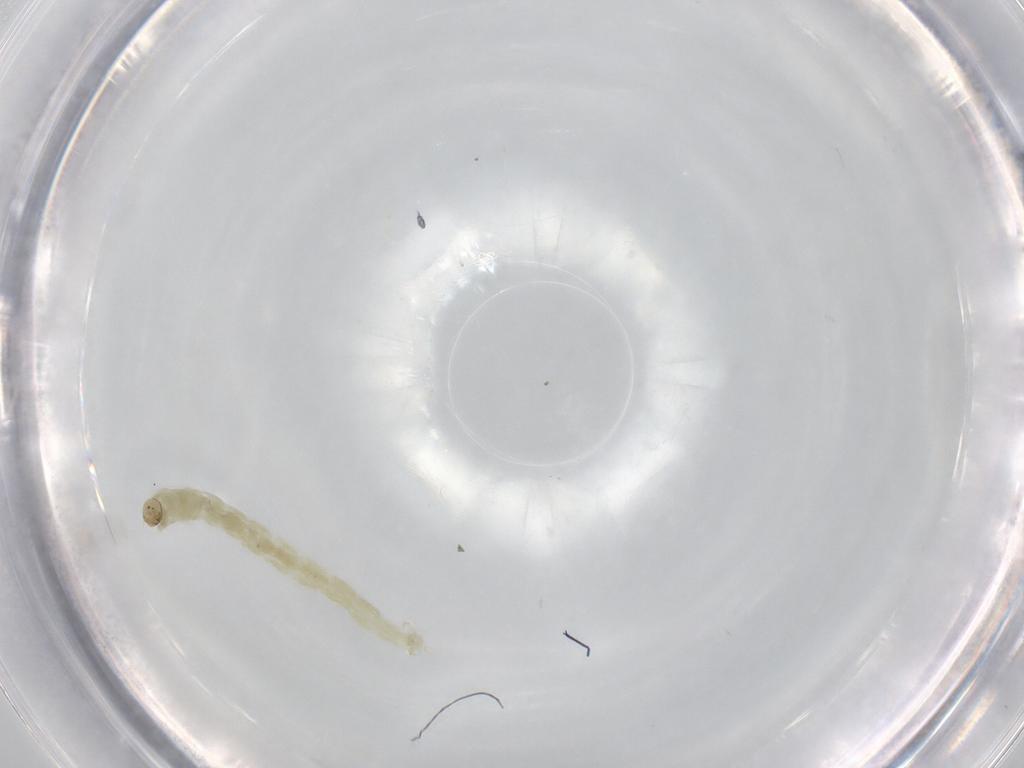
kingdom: Animalia
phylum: Arthropoda
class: Insecta
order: Diptera
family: Chironomidae
